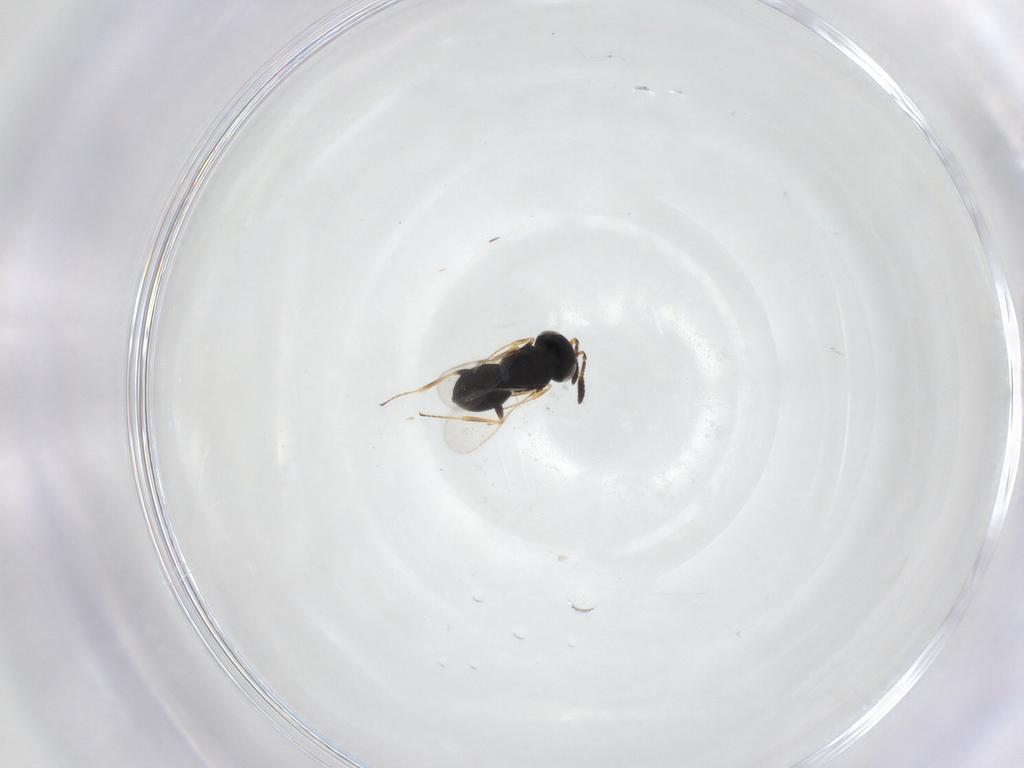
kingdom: Animalia
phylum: Arthropoda
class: Insecta
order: Hymenoptera
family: Scelionidae
